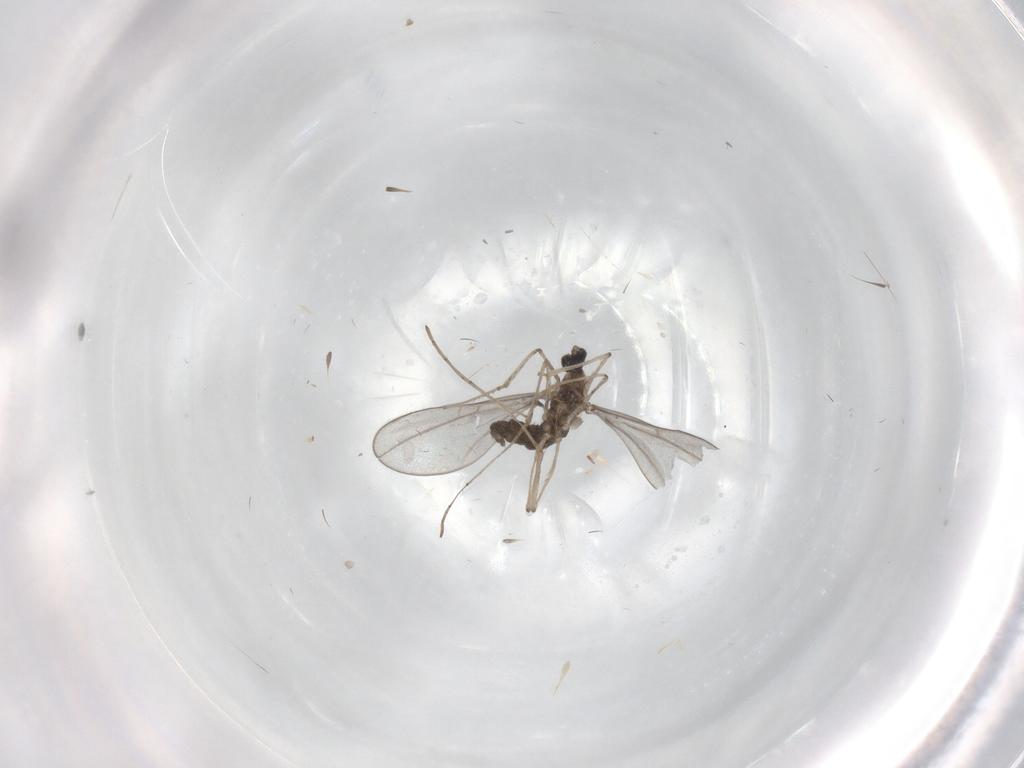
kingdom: Animalia
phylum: Arthropoda
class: Insecta
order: Diptera
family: Cecidomyiidae
